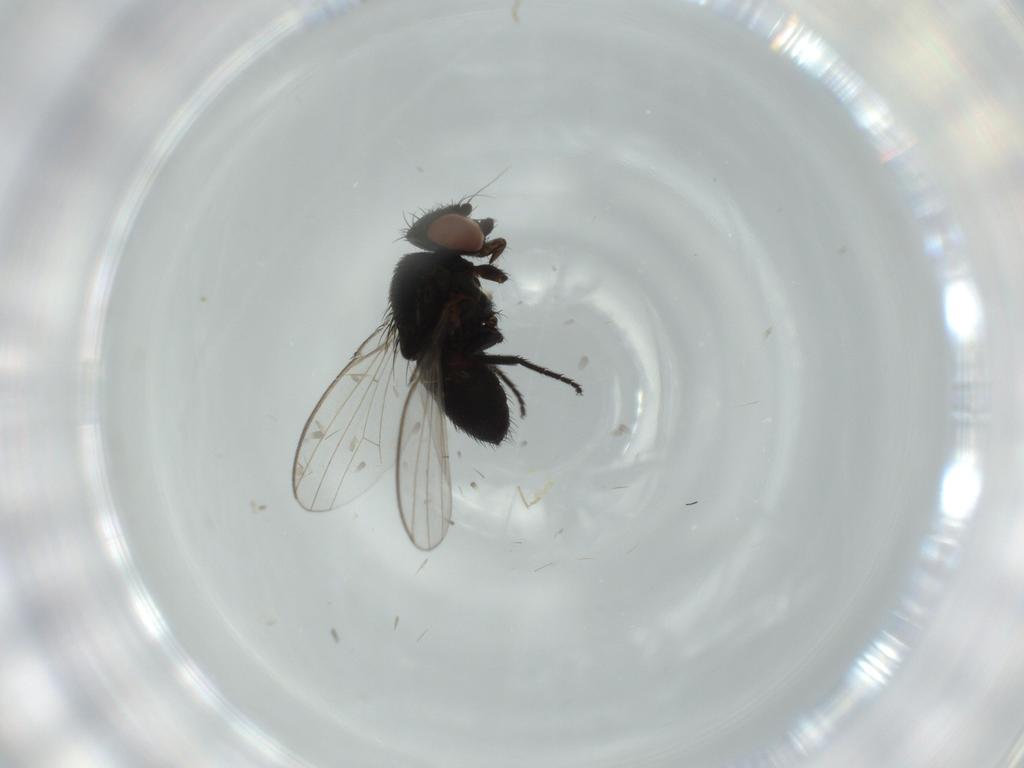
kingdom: Animalia
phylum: Arthropoda
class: Insecta
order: Diptera
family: Milichiidae
